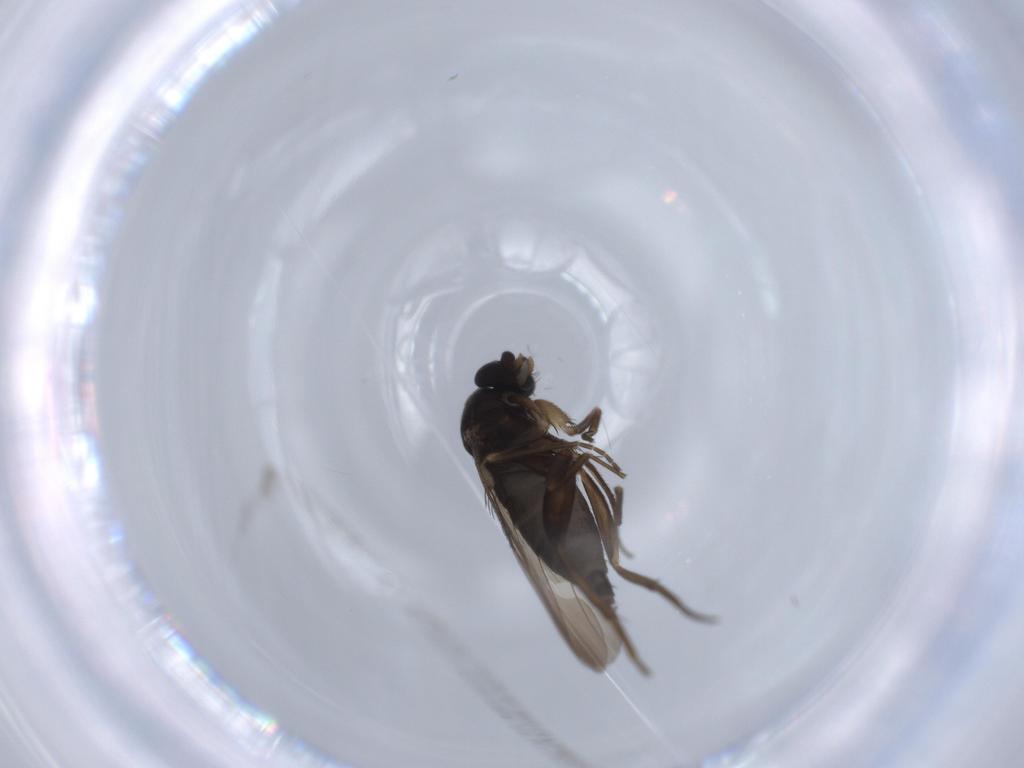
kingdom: Animalia
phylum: Arthropoda
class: Insecta
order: Diptera
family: Phoridae
